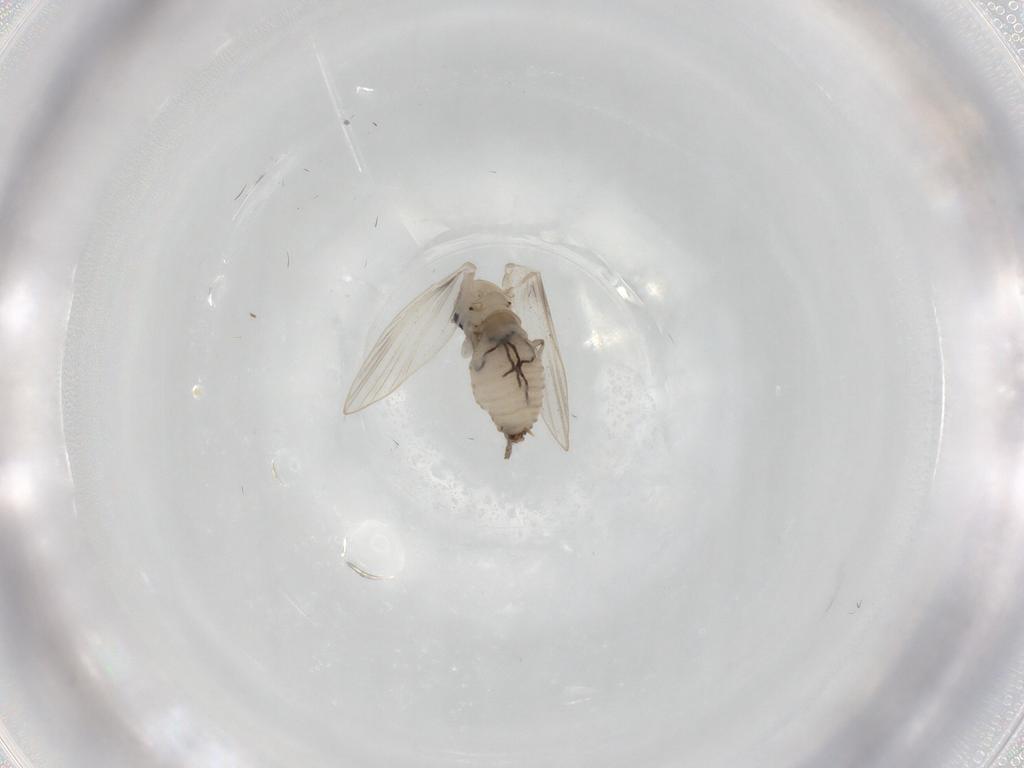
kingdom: Animalia
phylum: Arthropoda
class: Insecta
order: Diptera
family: Psychodidae
